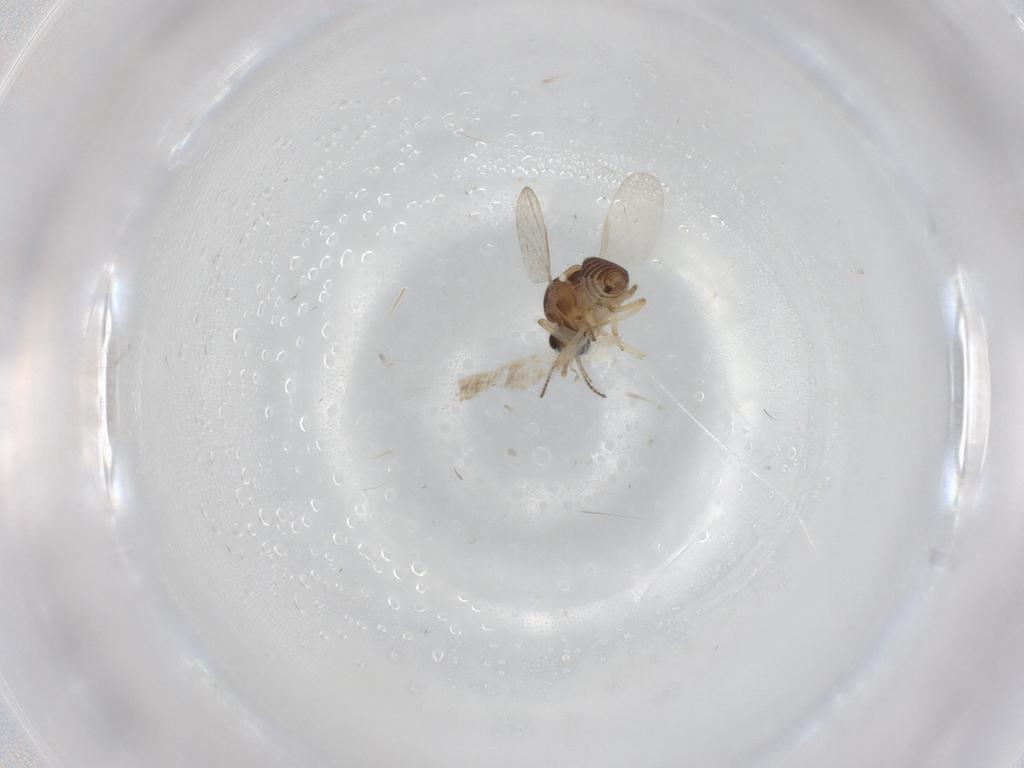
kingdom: Animalia
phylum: Arthropoda
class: Insecta
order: Diptera
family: Ceratopogonidae
